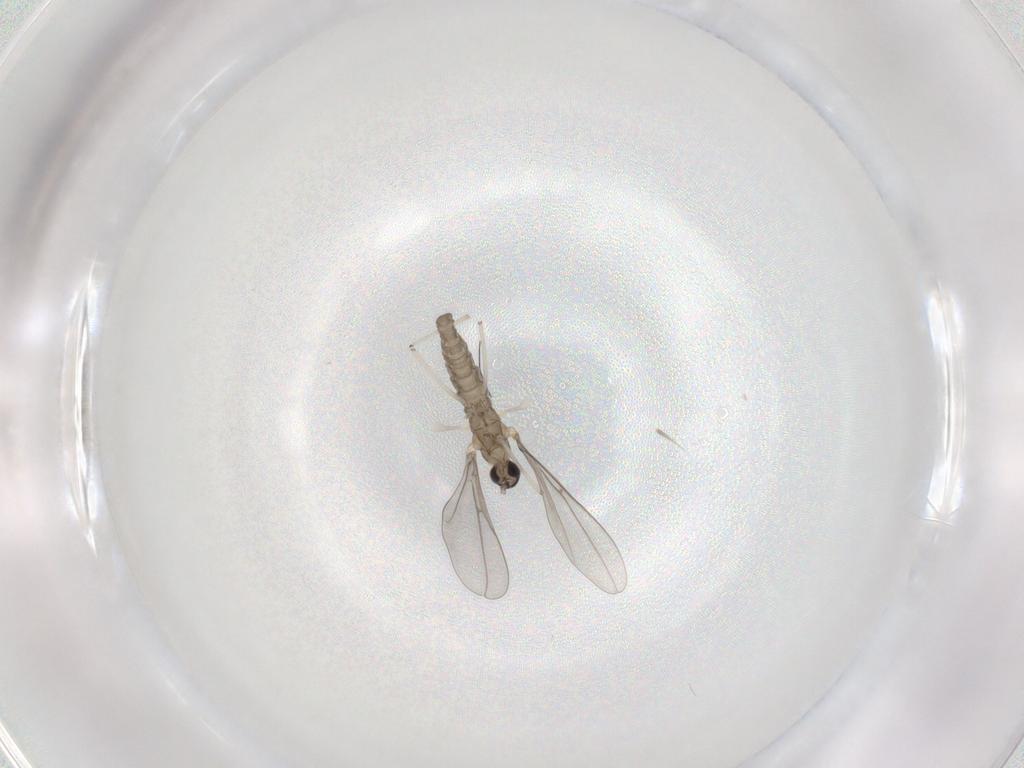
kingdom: Animalia
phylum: Arthropoda
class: Insecta
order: Diptera
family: Cecidomyiidae
